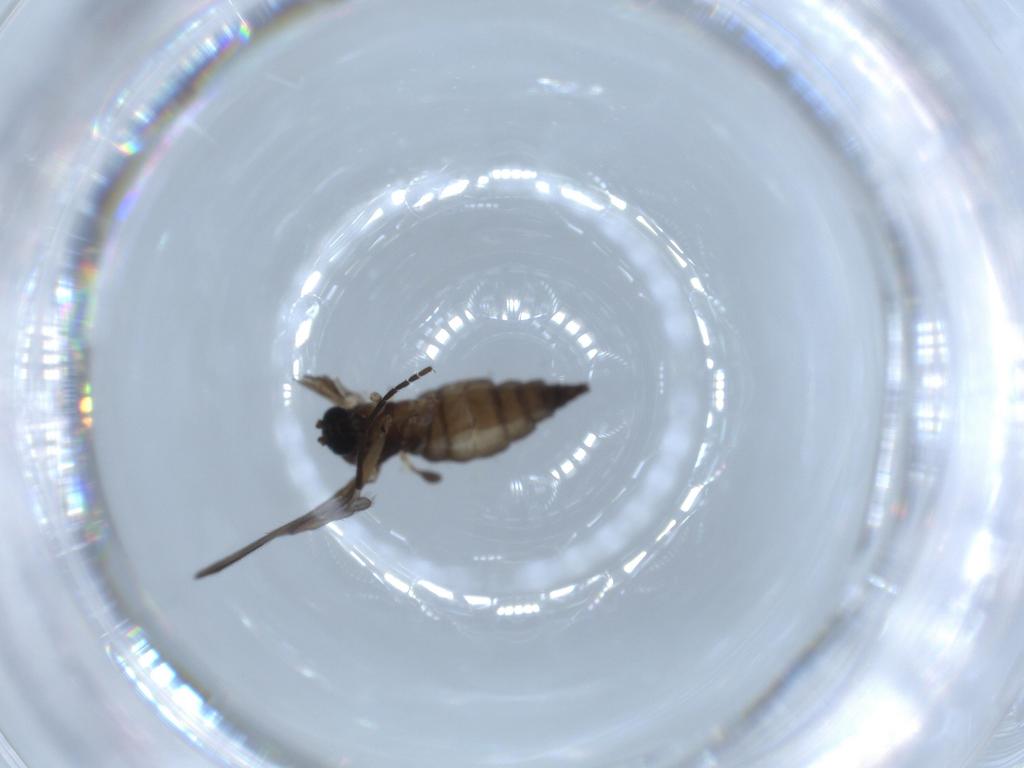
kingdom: Animalia
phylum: Arthropoda
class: Insecta
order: Diptera
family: Sciaridae
